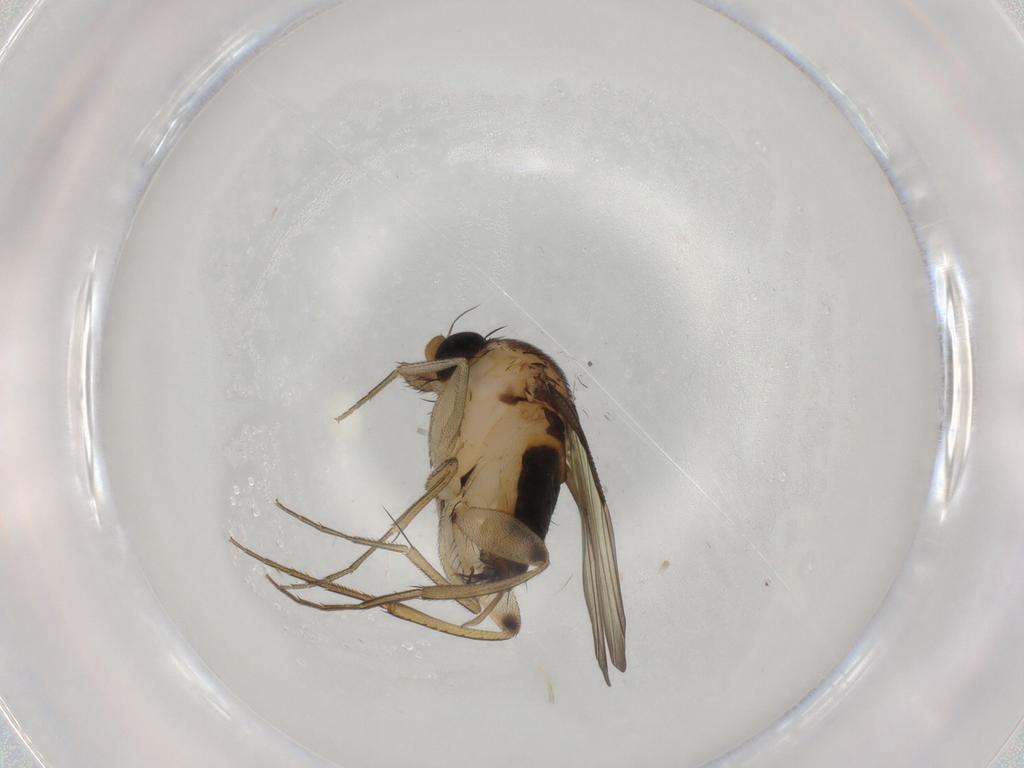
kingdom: Animalia
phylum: Arthropoda
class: Insecta
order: Diptera
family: Phoridae
